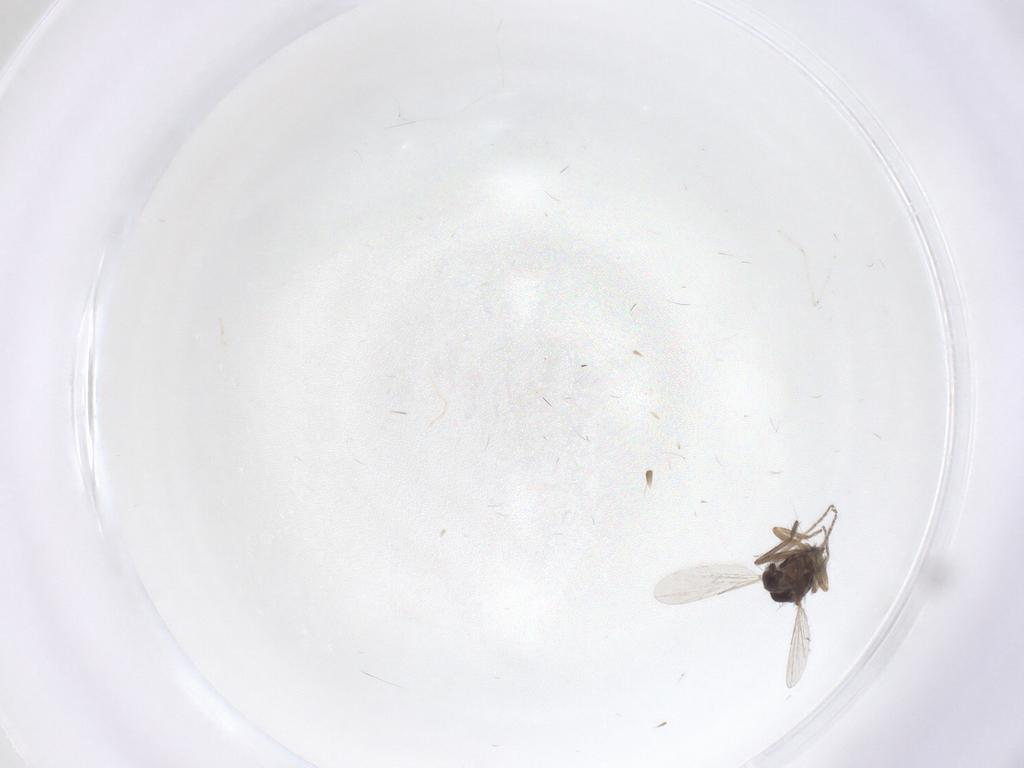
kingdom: Animalia
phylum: Arthropoda
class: Insecta
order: Diptera
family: Ceratopogonidae
